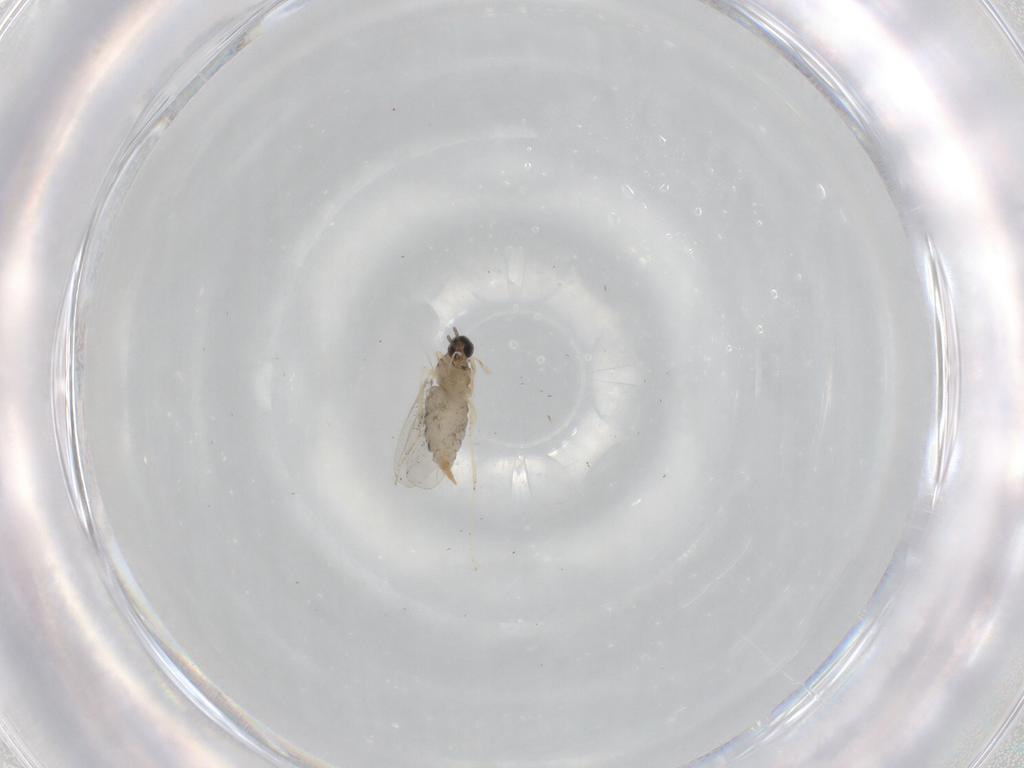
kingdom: Animalia
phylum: Arthropoda
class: Insecta
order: Diptera
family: Cecidomyiidae
